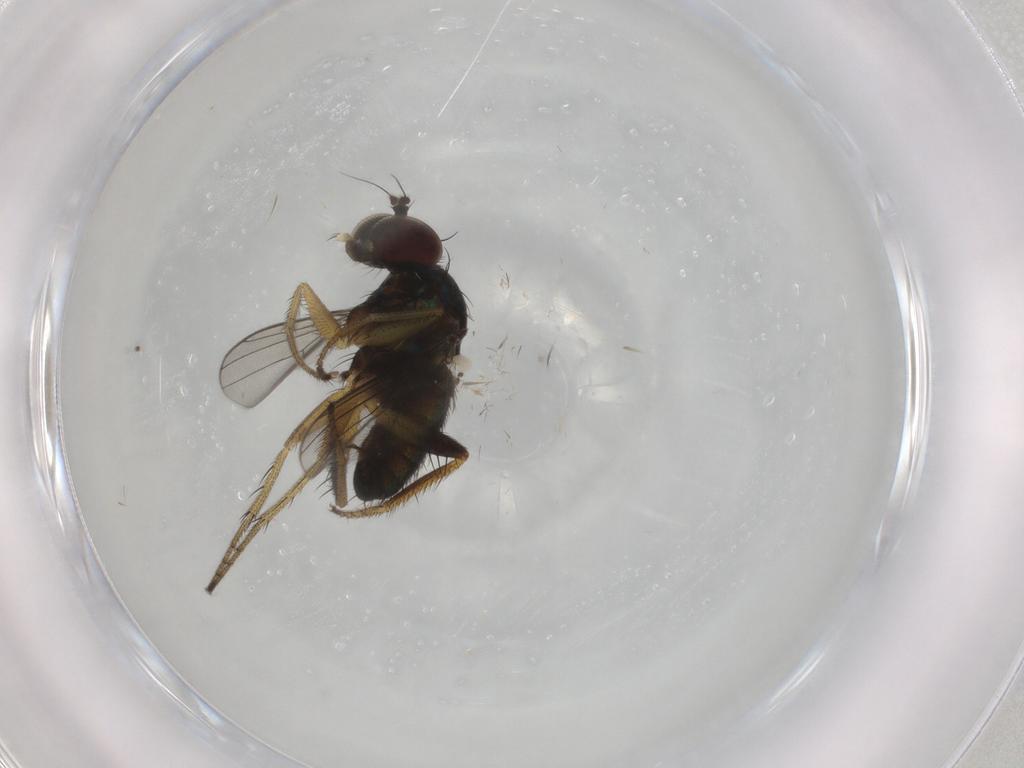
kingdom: Animalia
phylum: Arthropoda
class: Insecta
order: Diptera
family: Dolichopodidae
